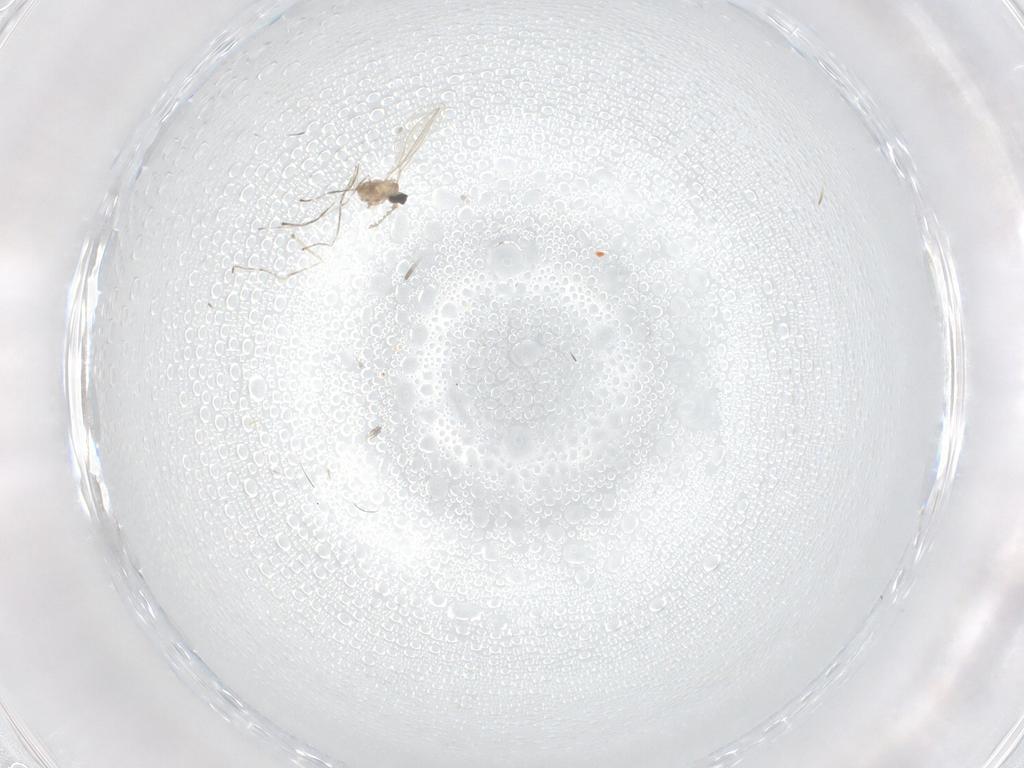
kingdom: Animalia
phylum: Arthropoda
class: Insecta
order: Diptera
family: Cecidomyiidae
